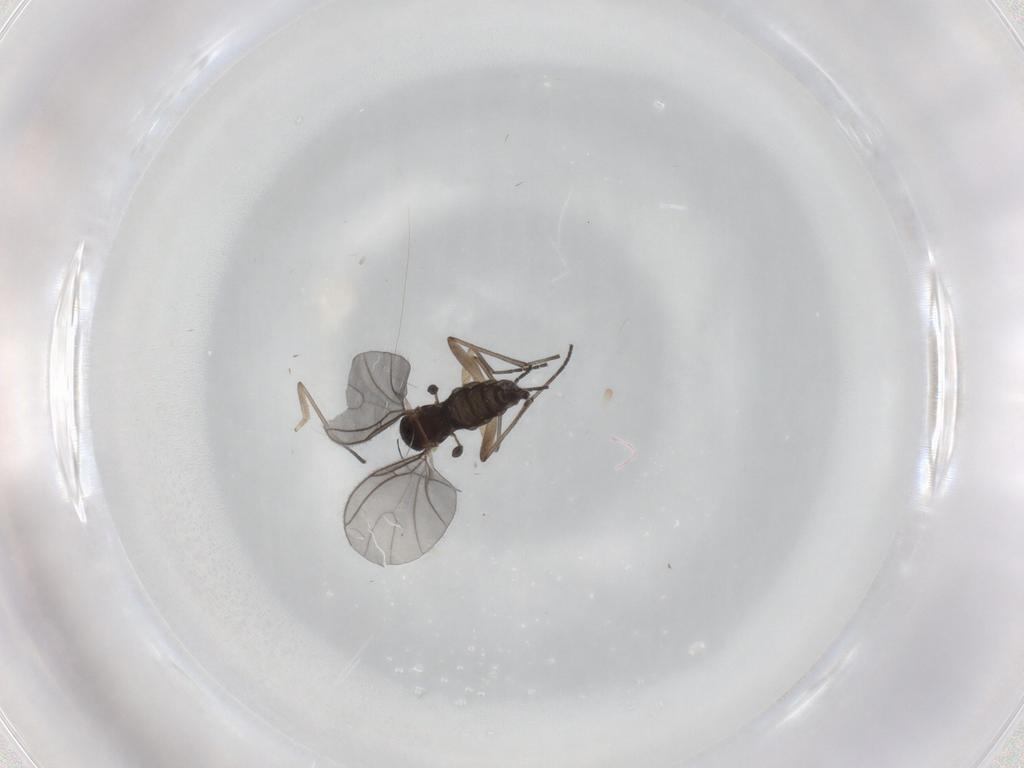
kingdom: Animalia
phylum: Arthropoda
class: Insecta
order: Diptera
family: Sciaridae
